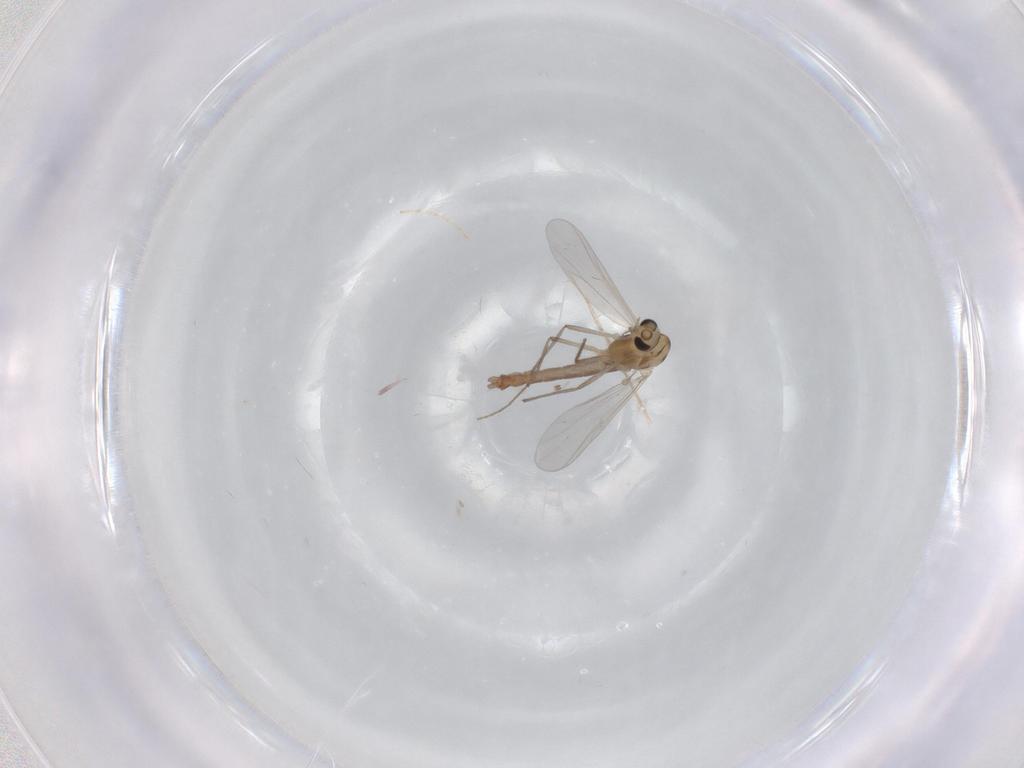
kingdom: Animalia
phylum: Arthropoda
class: Insecta
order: Diptera
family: Chironomidae
